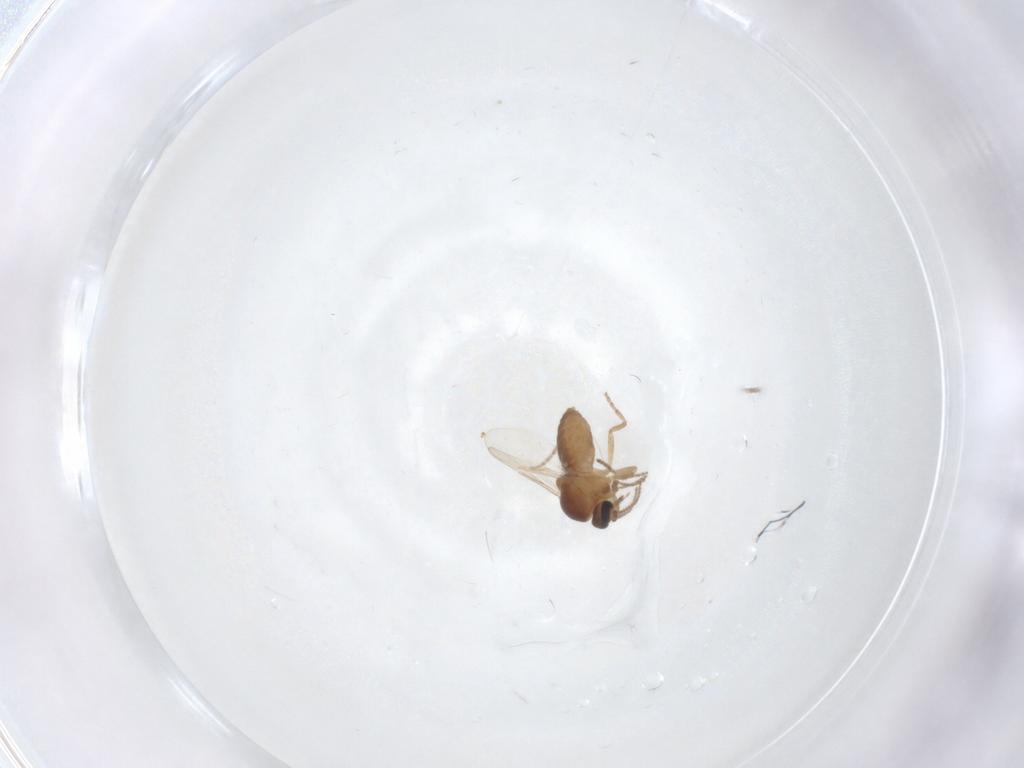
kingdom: Animalia
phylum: Arthropoda
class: Insecta
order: Diptera
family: Ceratopogonidae
